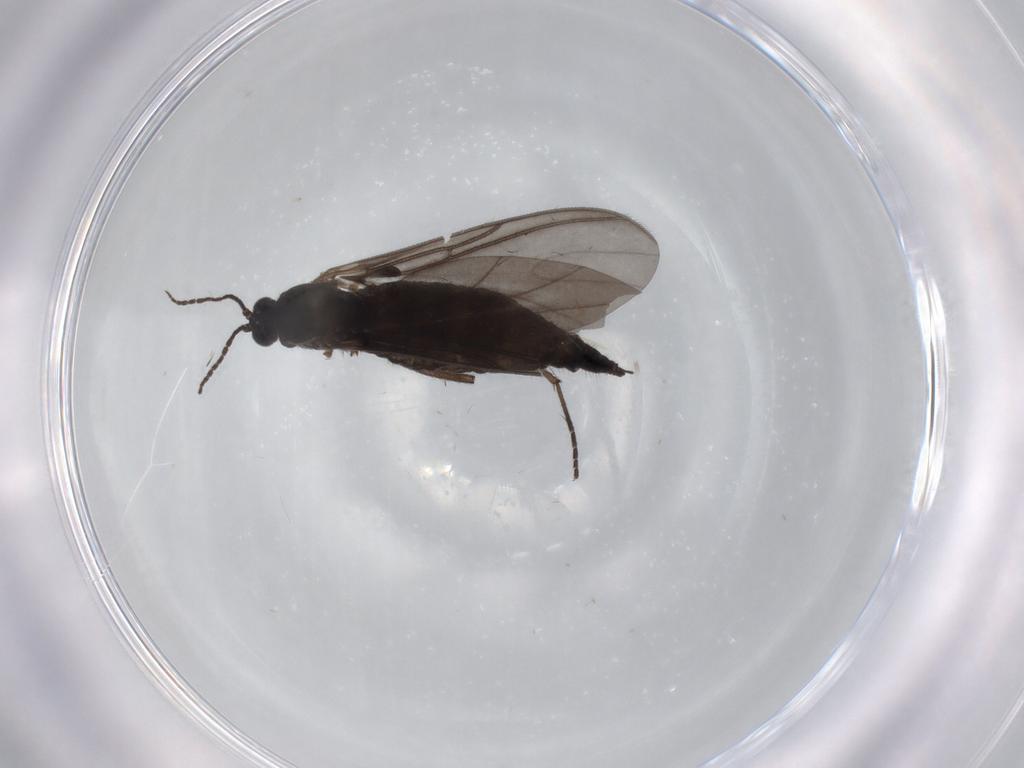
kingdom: Animalia
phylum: Arthropoda
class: Insecta
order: Diptera
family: Sciaridae
